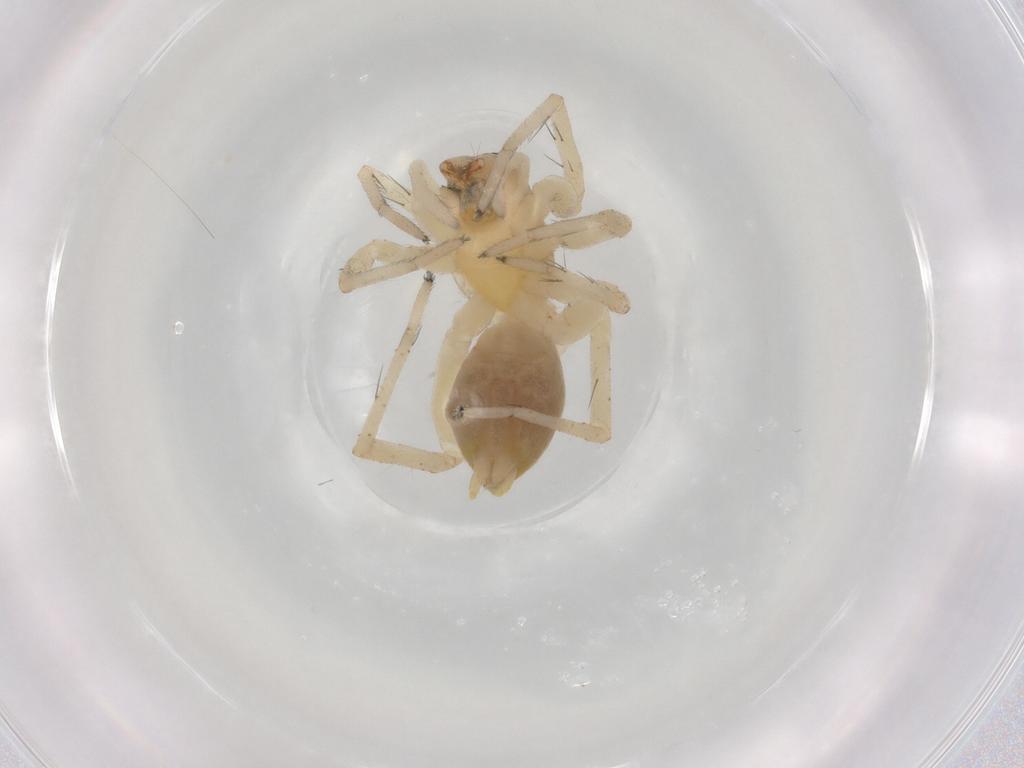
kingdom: Animalia
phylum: Arthropoda
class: Arachnida
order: Araneae
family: Anyphaenidae
